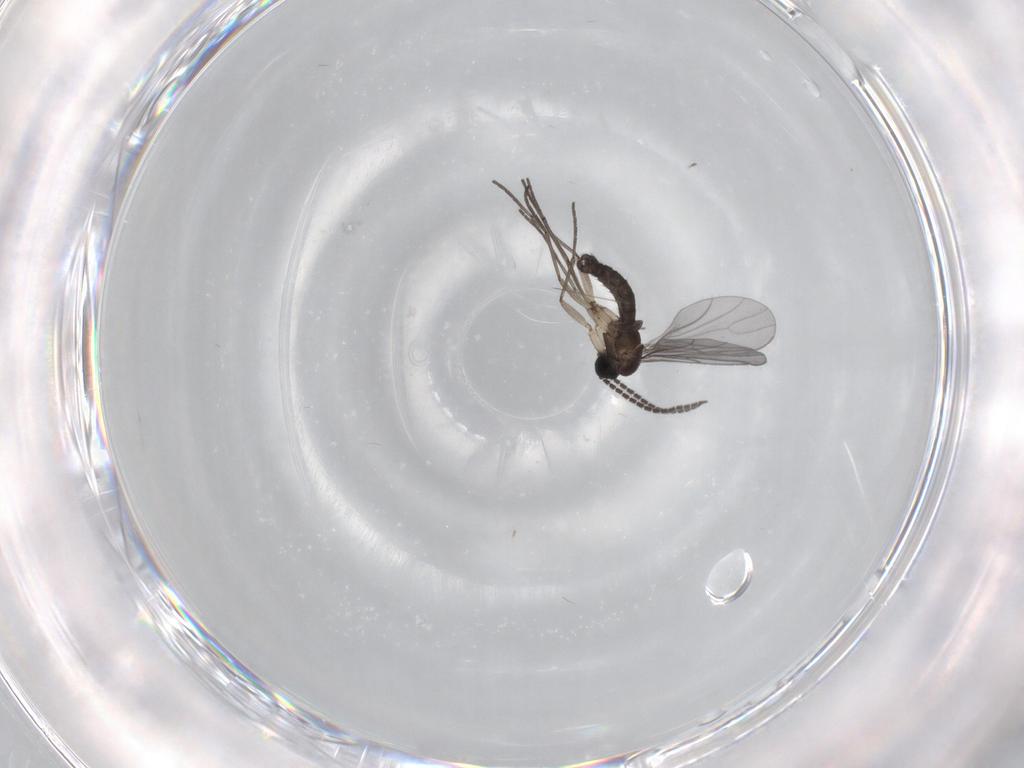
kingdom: Animalia
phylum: Arthropoda
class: Insecta
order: Diptera
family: Sciaridae
